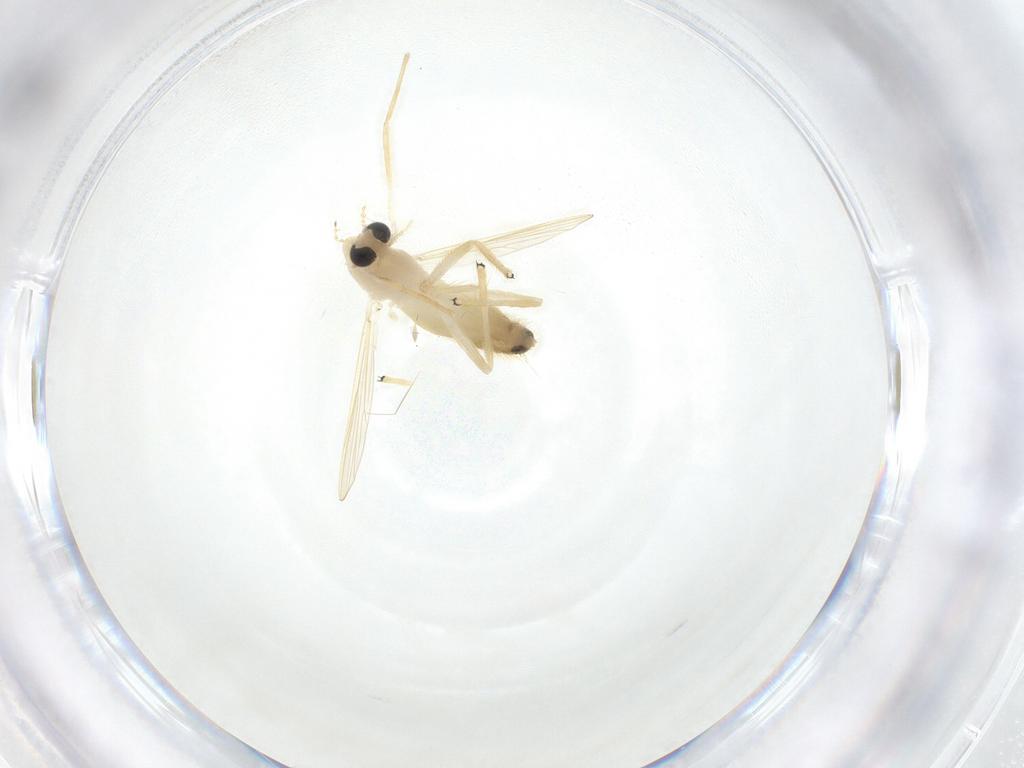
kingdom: Animalia
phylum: Arthropoda
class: Insecta
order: Diptera
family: Chironomidae
